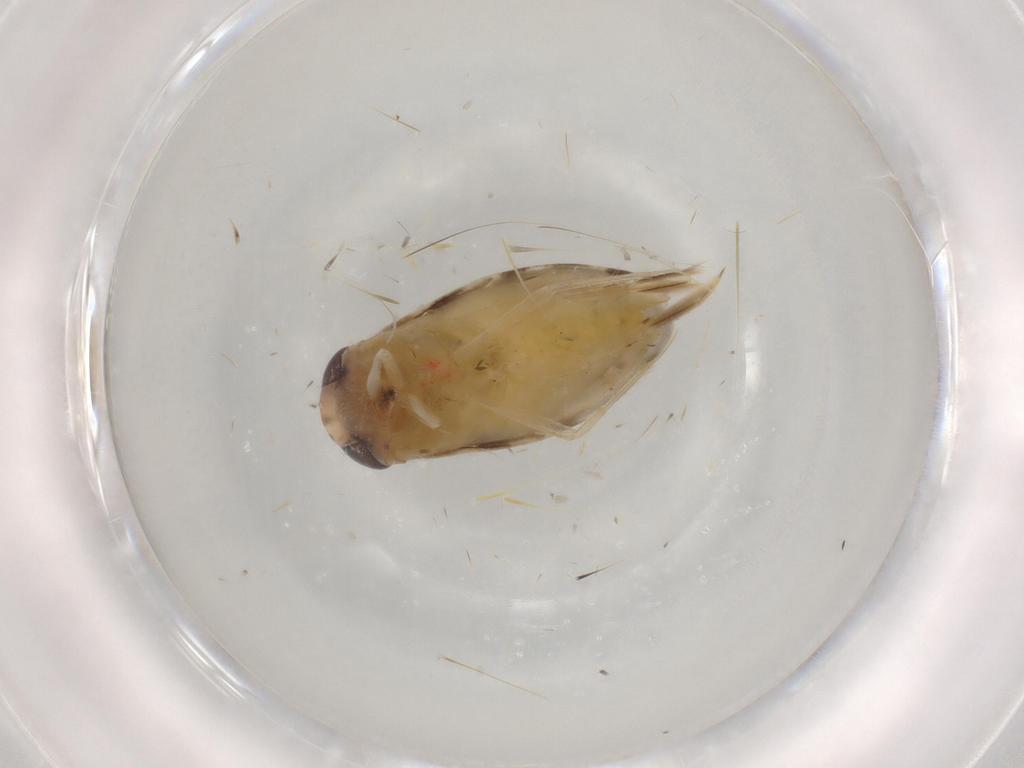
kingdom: Animalia
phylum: Arthropoda
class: Insecta
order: Hemiptera
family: Corixidae
